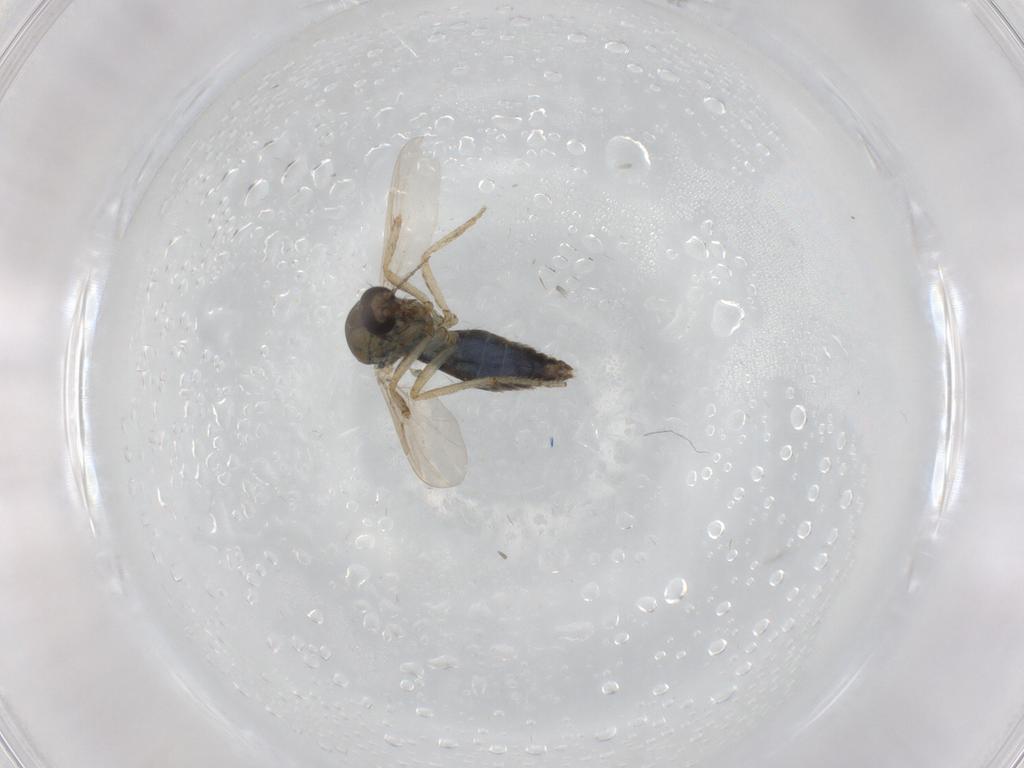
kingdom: Animalia
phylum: Arthropoda
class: Insecta
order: Diptera
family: Ceratopogonidae
